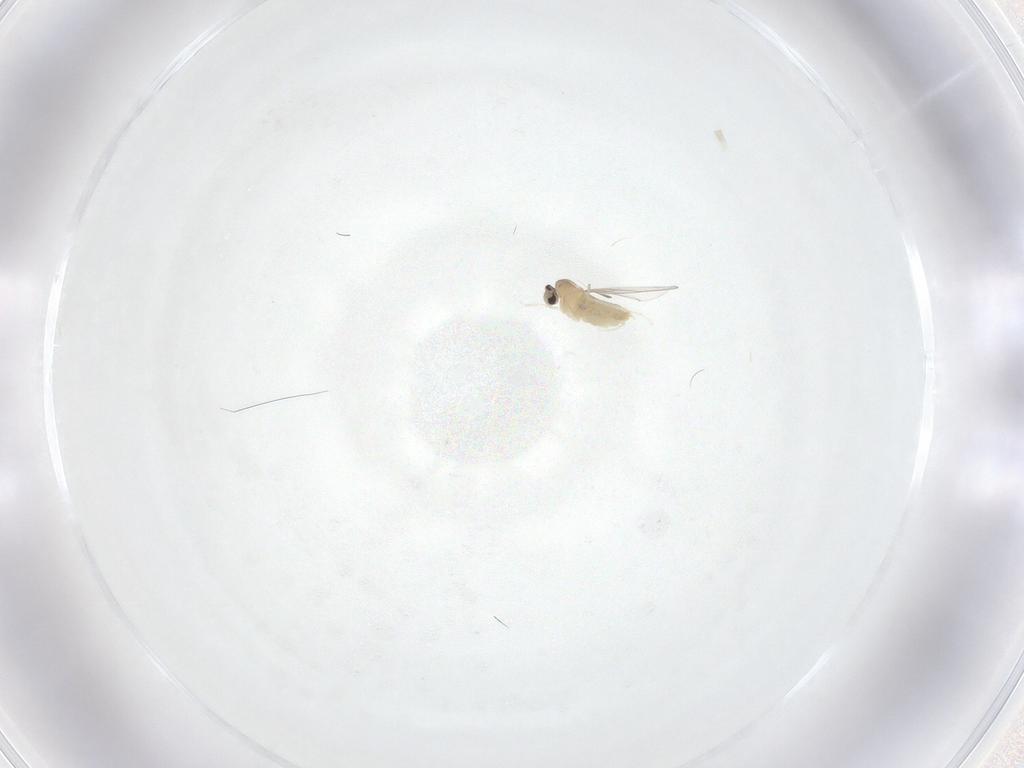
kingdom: Animalia
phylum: Arthropoda
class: Insecta
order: Diptera
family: Cecidomyiidae
